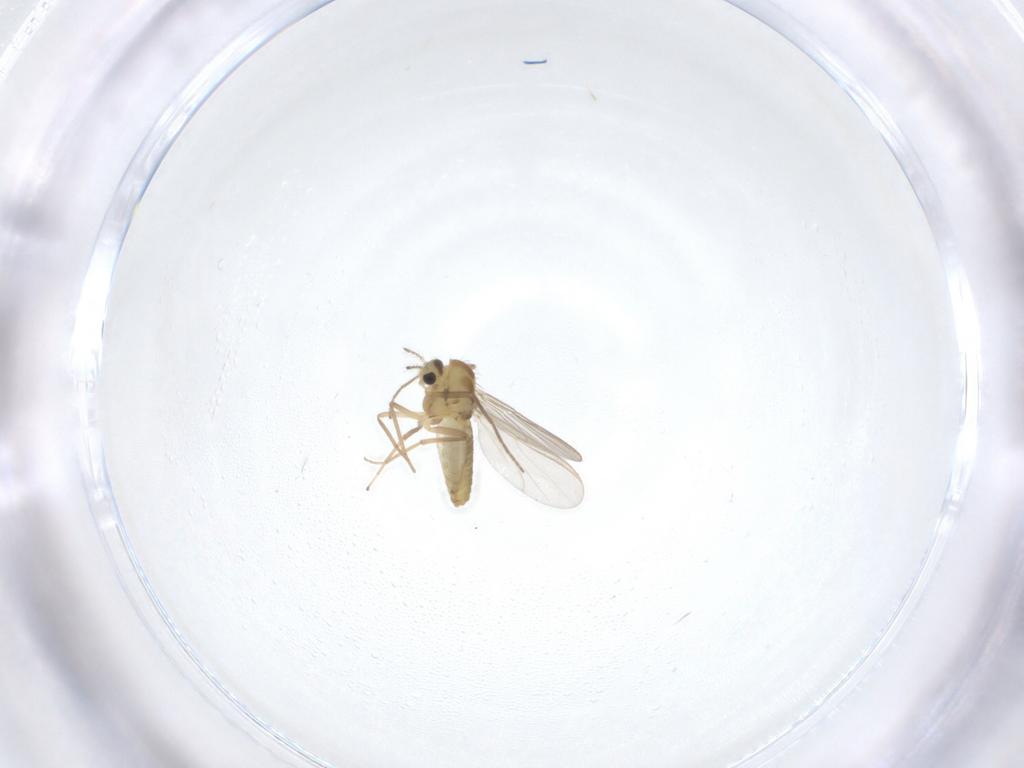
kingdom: Animalia
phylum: Arthropoda
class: Insecta
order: Diptera
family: Chironomidae
